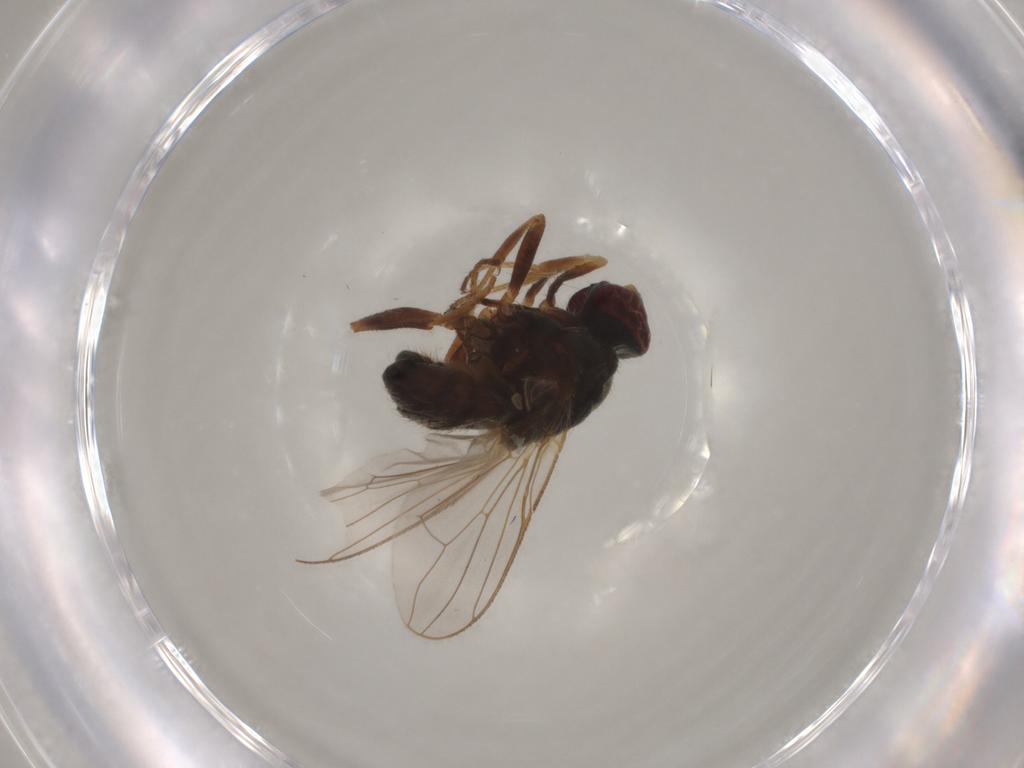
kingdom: Animalia
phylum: Arthropoda
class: Insecta
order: Diptera
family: Muscidae
